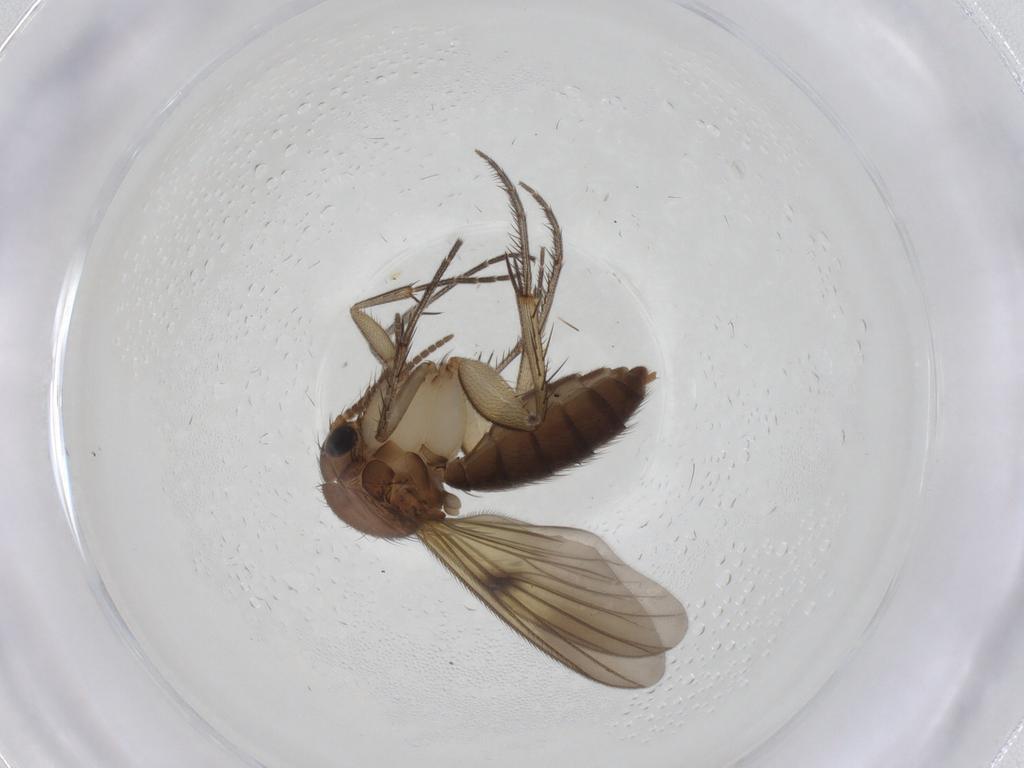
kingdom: Animalia
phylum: Arthropoda
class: Insecta
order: Diptera
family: Mycetophilidae
